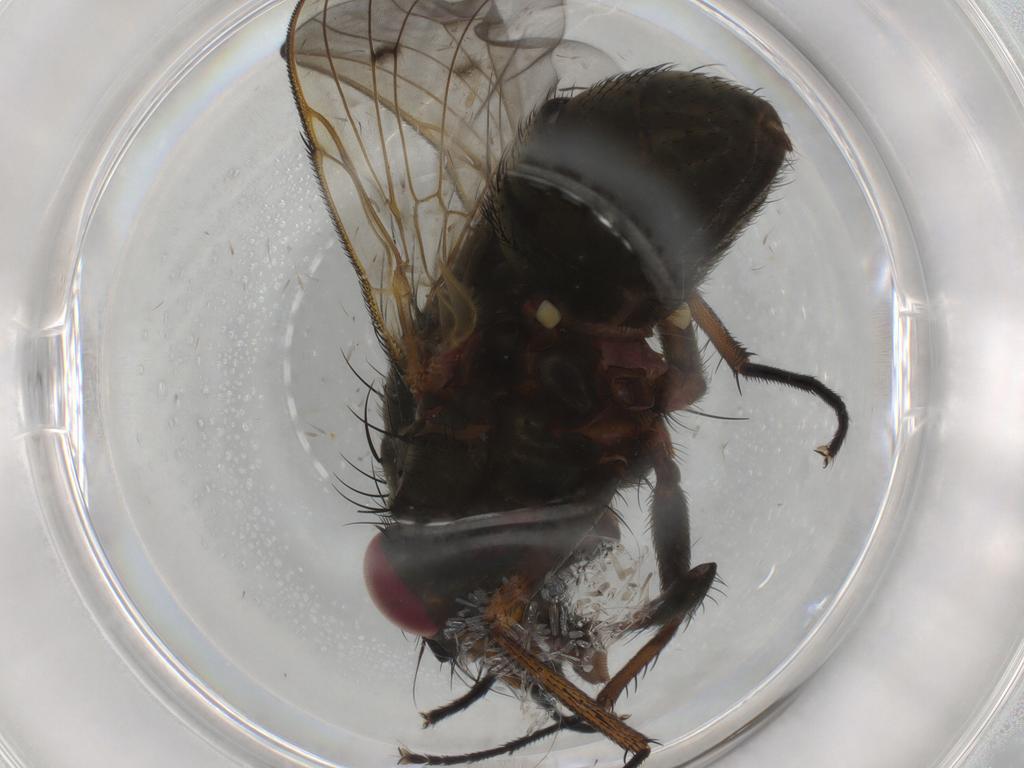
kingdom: Animalia
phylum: Arthropoda
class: Insecta
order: Diptera
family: Muscidae
